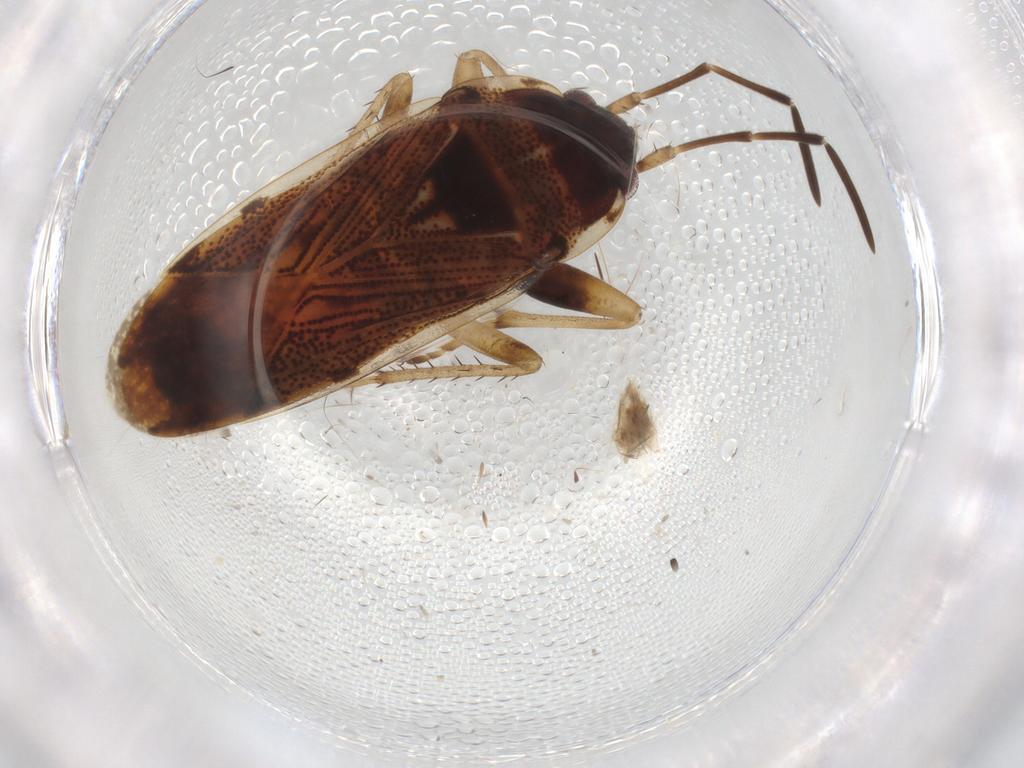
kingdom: Animalia
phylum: Arthropoda
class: Insecta
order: Hemiptera
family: Rhyparochromidae
